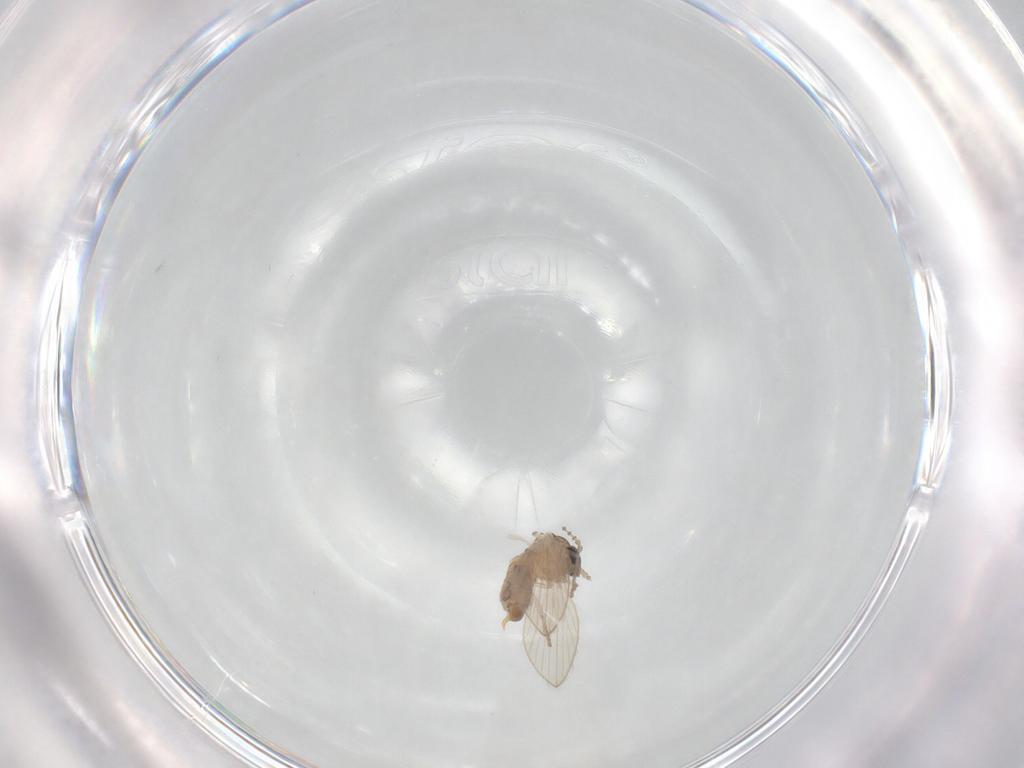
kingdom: Animalia
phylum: Arthropoda
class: Insecta
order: Diptera
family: Psychodidae
